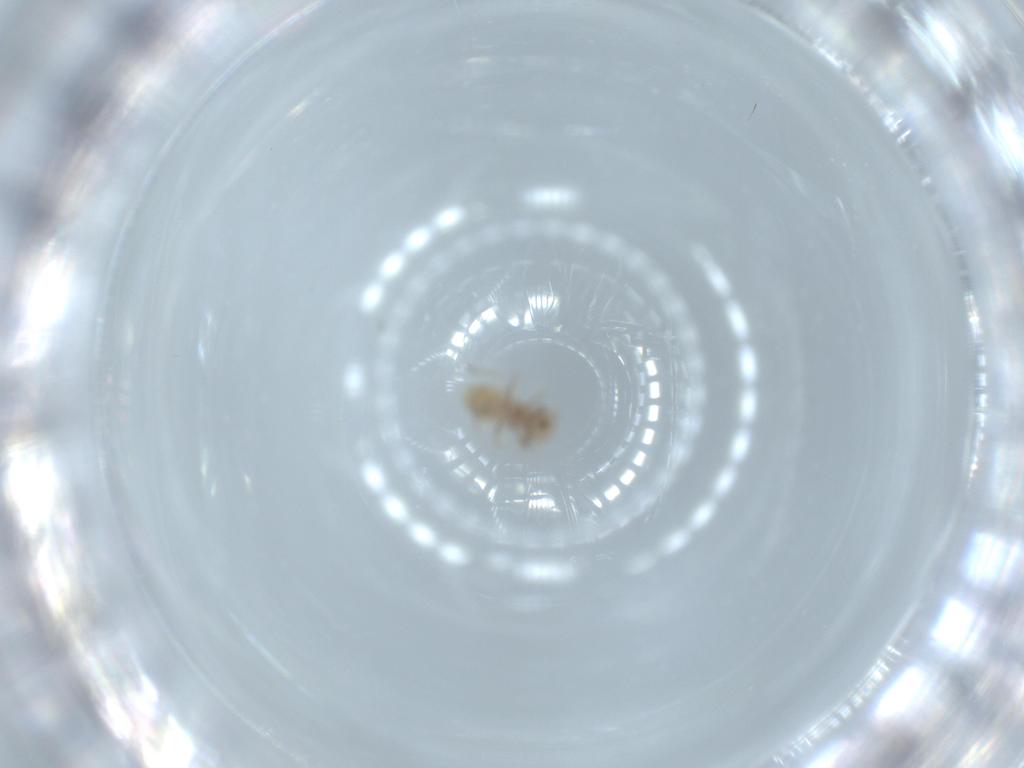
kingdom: Animalia
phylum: Arthropoda
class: Insecta
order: Psocodea
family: Lachesillidae
